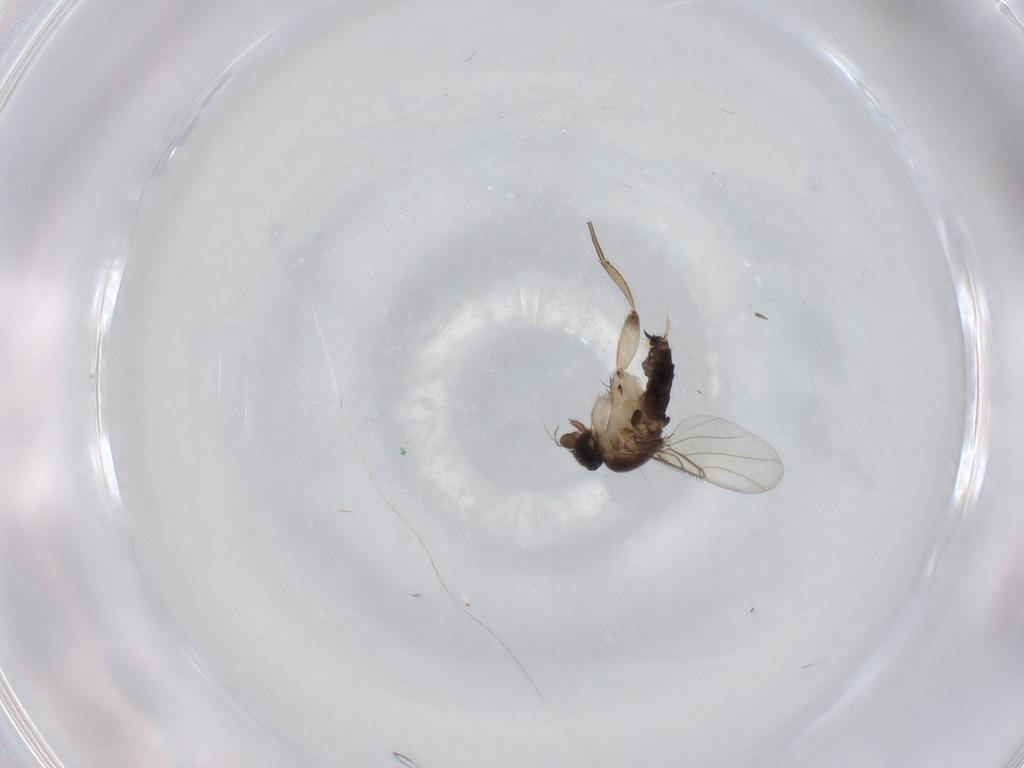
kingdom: Animalia
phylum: Arthropoda
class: Insecta
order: Diptera
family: Phoridae
